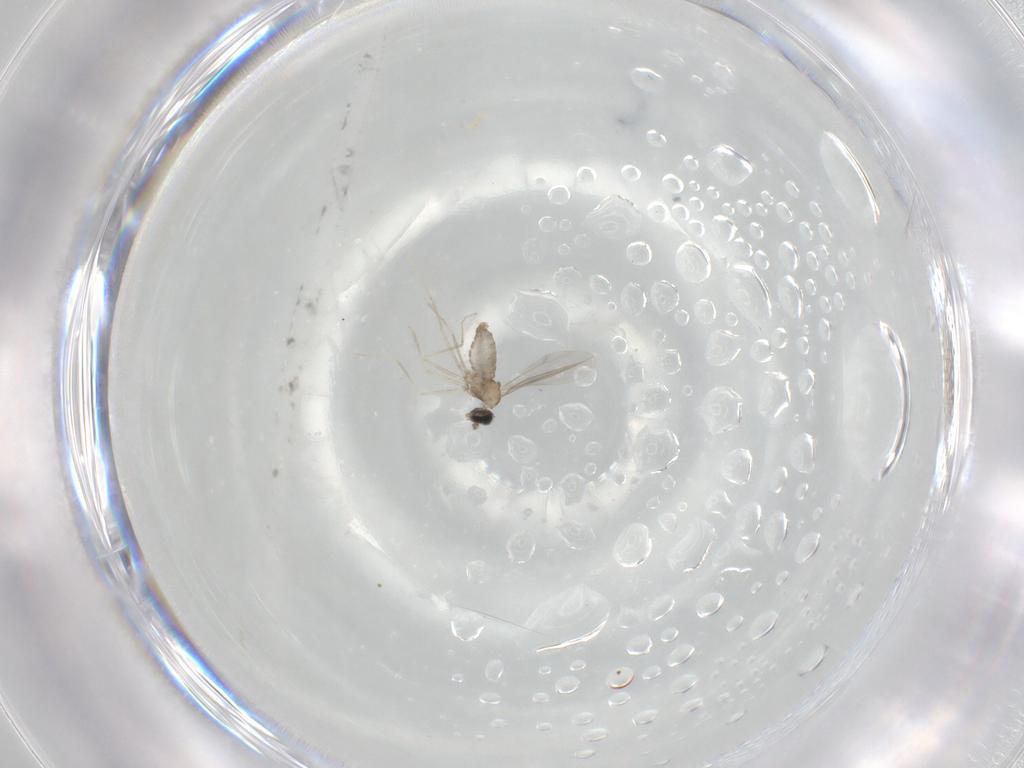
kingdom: Animalia
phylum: Arthropoda
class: Insecta
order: Diptera
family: Cecidomyiidae
